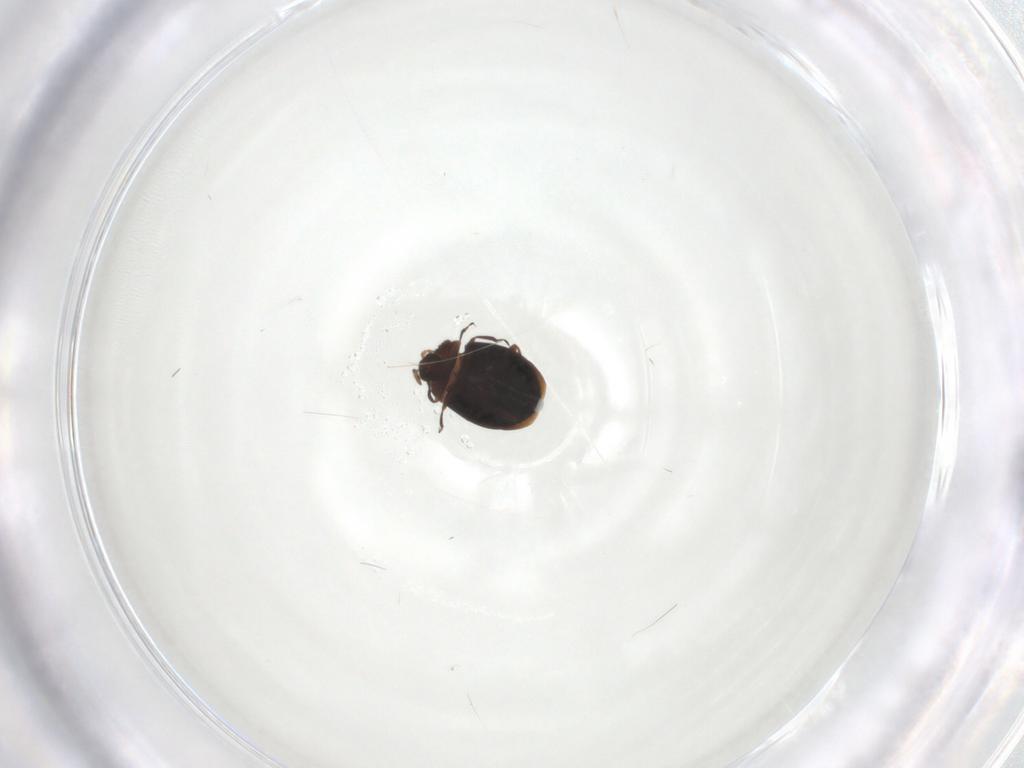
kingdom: Animalia
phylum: Arthropoda
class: Insecta
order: Coleoptera
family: Corylophidae
